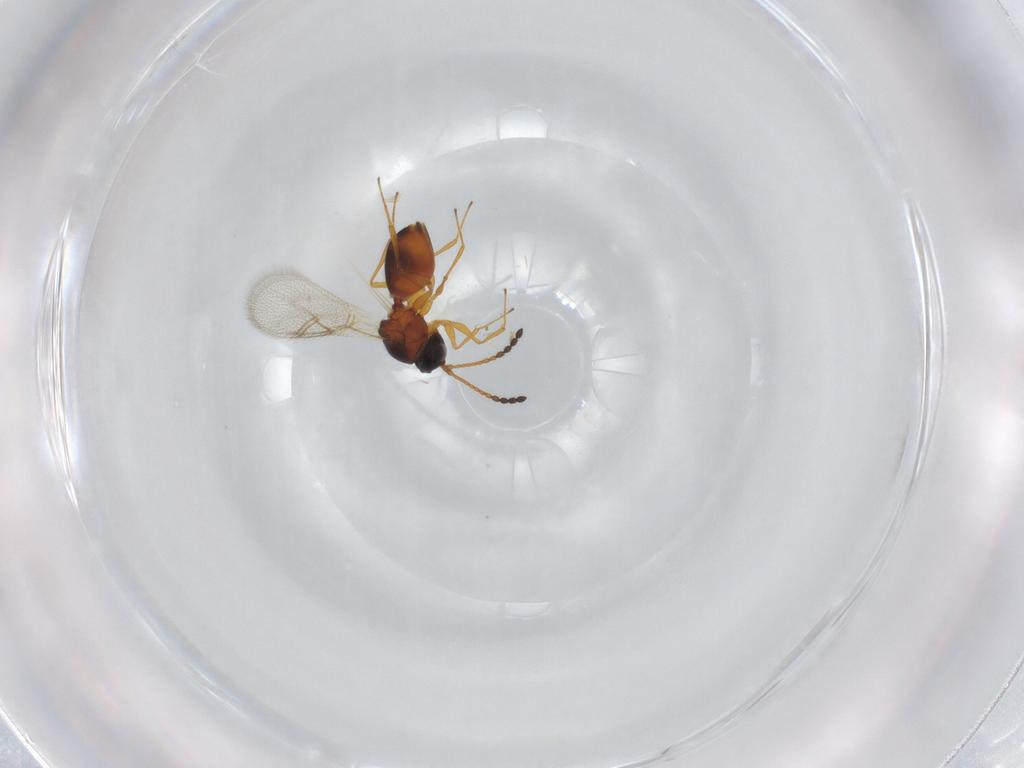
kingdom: Animalia
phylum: Arthropoda
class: Insecta
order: Hymenoptera
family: Figitidae
